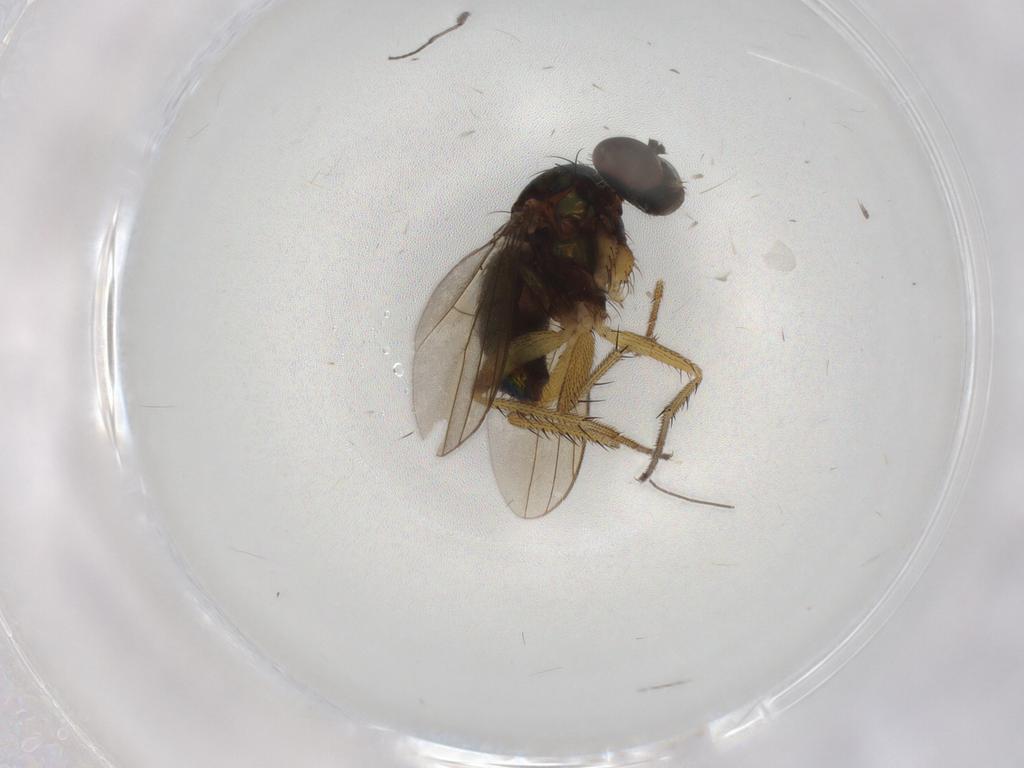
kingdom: Animalia
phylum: Arthropoda
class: Insecta
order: Diptera
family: Dolichopodidae
